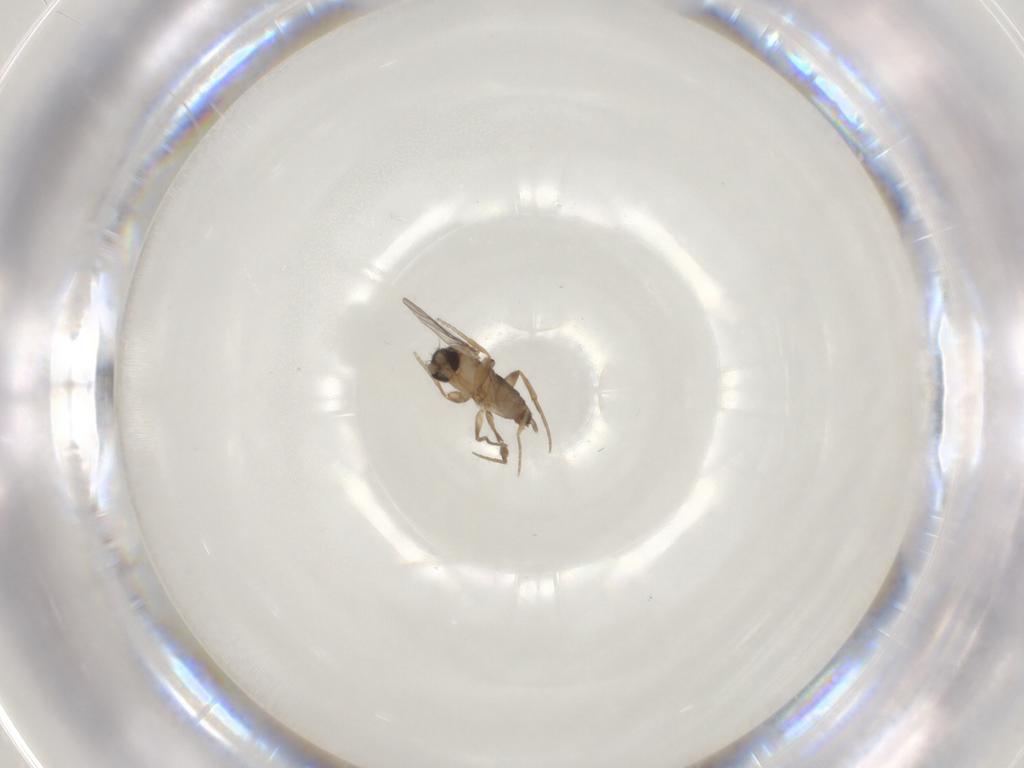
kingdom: Animalia
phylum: Arthropoda
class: Insecta
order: Diptera
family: Phoridae
